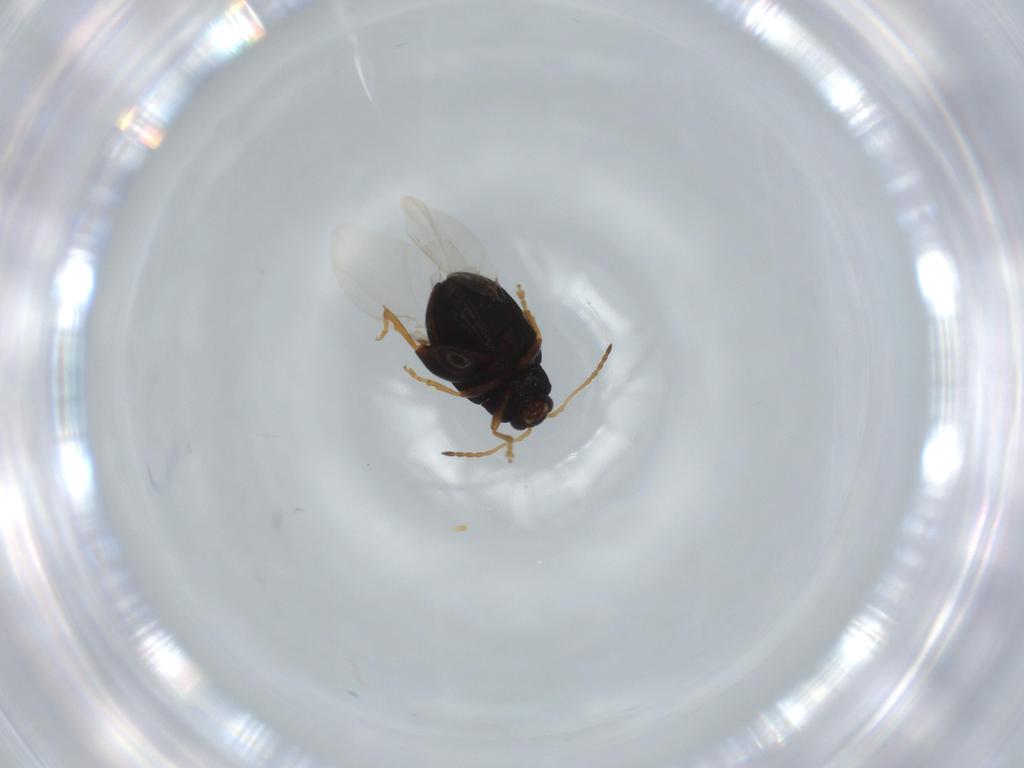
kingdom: Animalia
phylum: Arthropoda
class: Insecta
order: Coleoptera
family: Chrysomelidae
